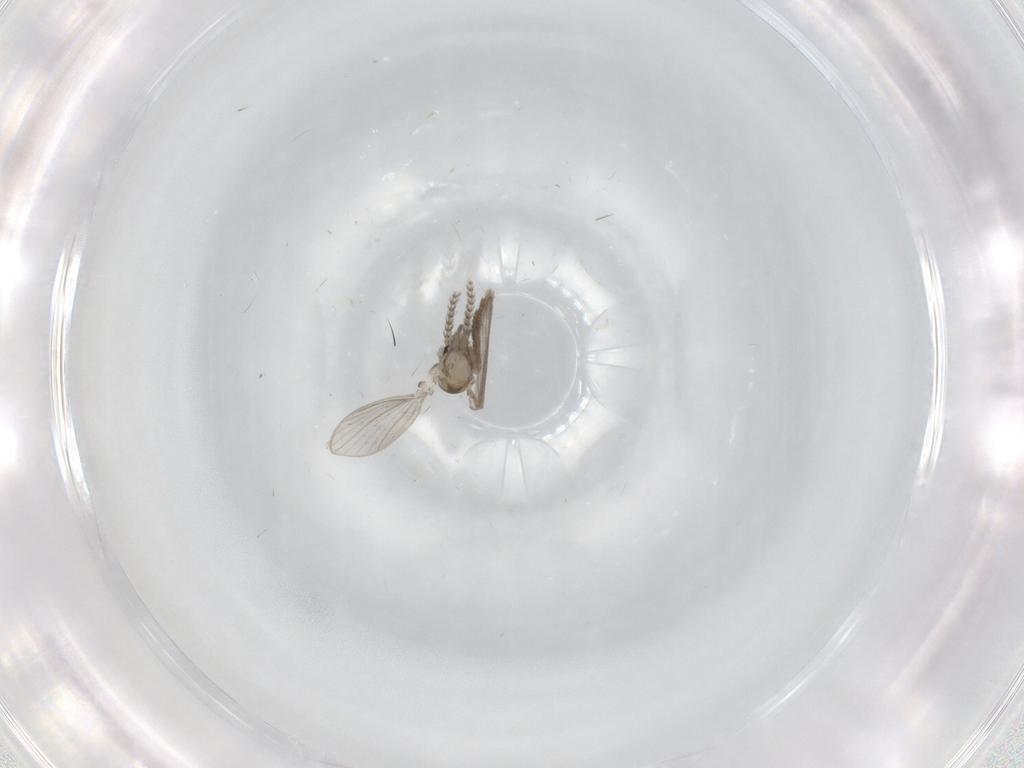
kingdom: Animalia
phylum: Arthropoda
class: Insecta
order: Diptera
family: Psychodidae
